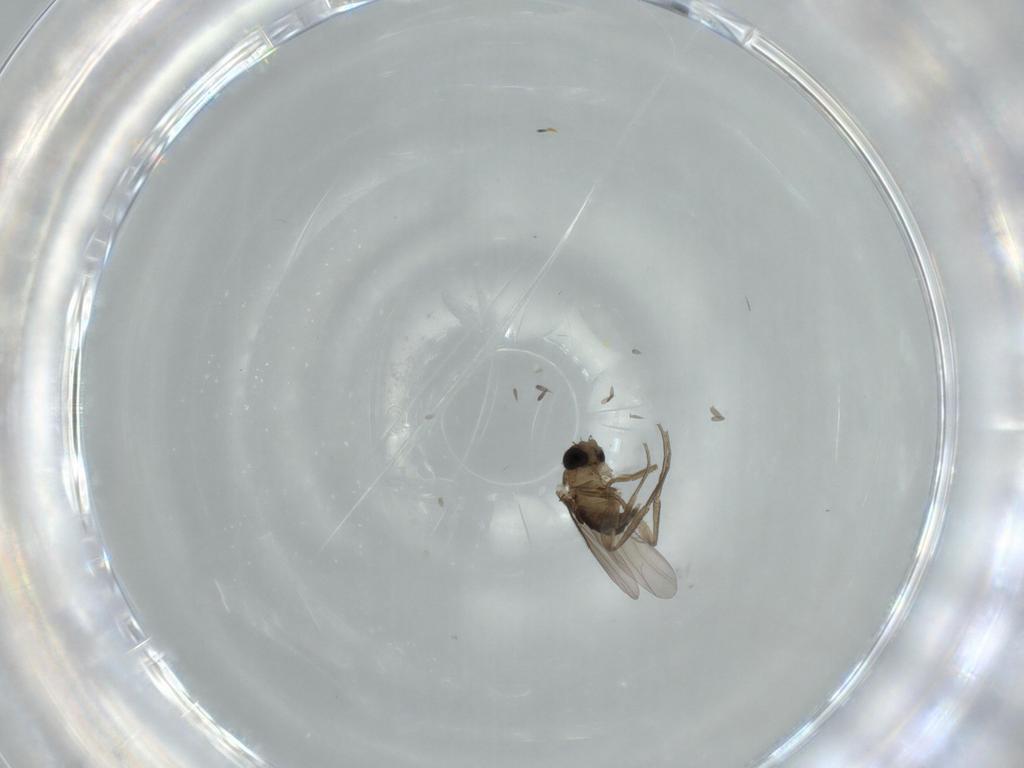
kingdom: Animalia
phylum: Arthropoda
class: Insecta
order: Diptera
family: Phoridae
